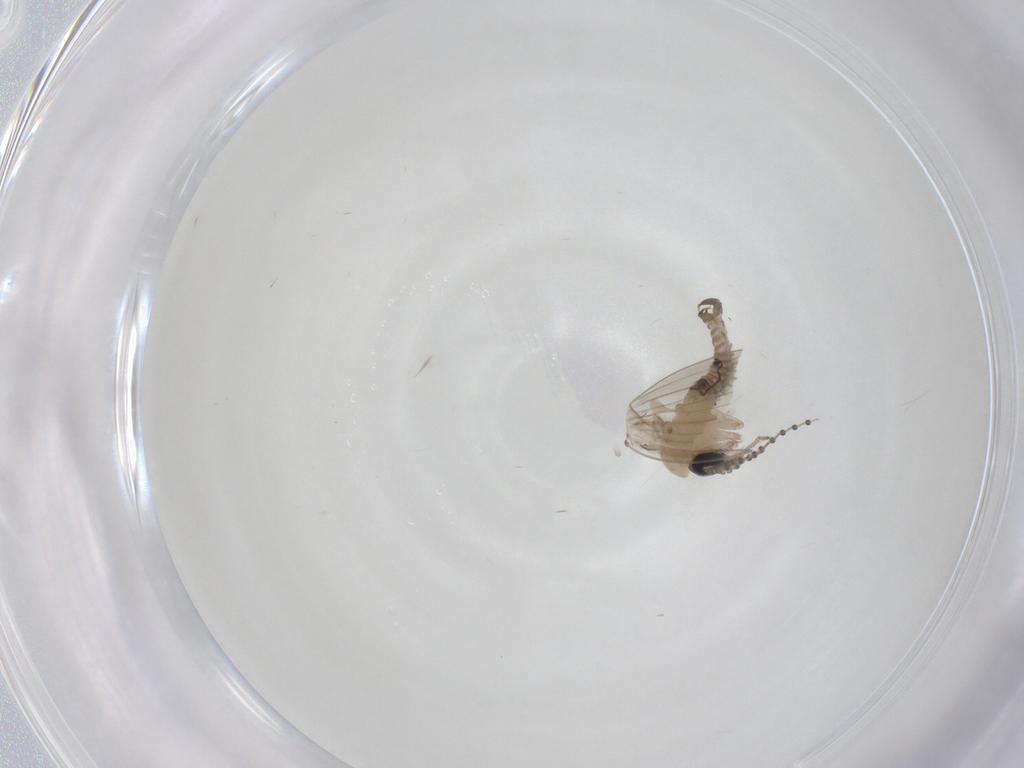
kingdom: Animalia
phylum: Arthropoda
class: Insecta
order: Diptera
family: Psychodidae
